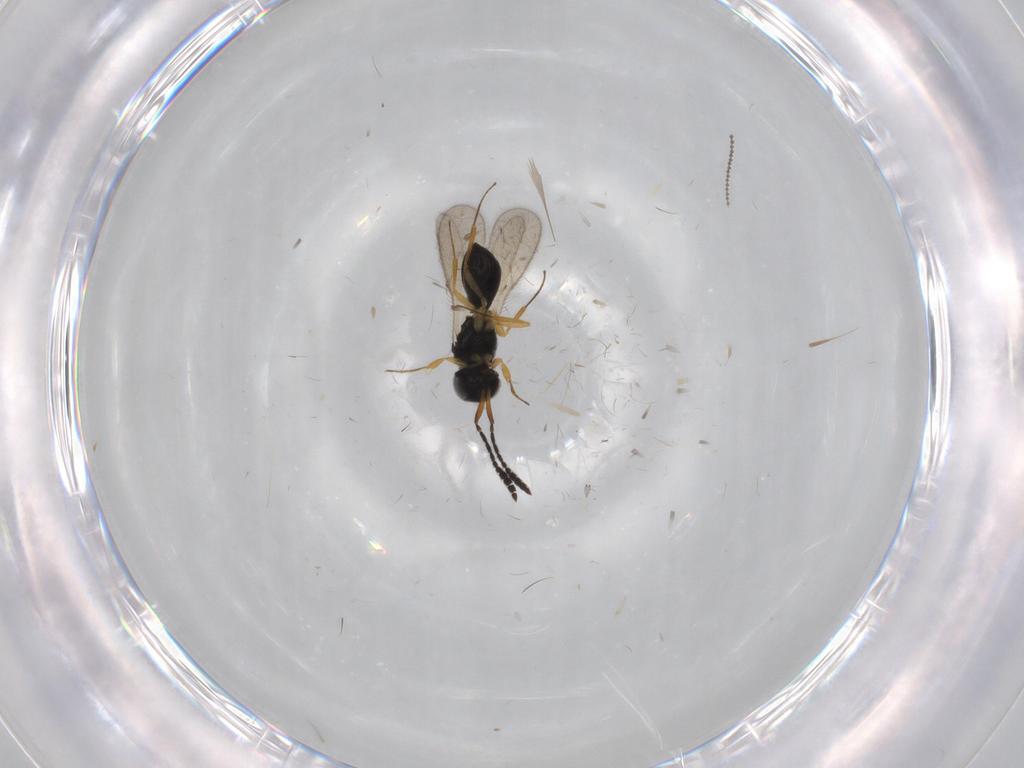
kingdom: Animalia
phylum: Arthropoda
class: Insecta
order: Hymenoptera
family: Scelionidae
